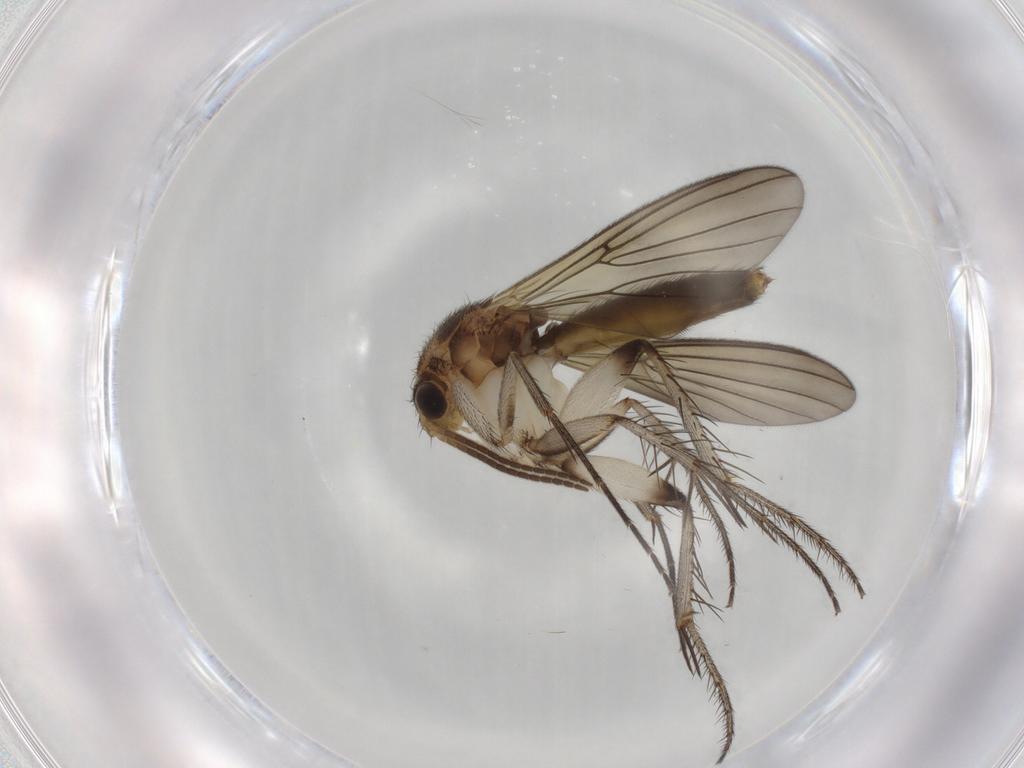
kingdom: Animalia
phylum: Arthropoda
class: Insecta
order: Diptera
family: Mycetophilidae
